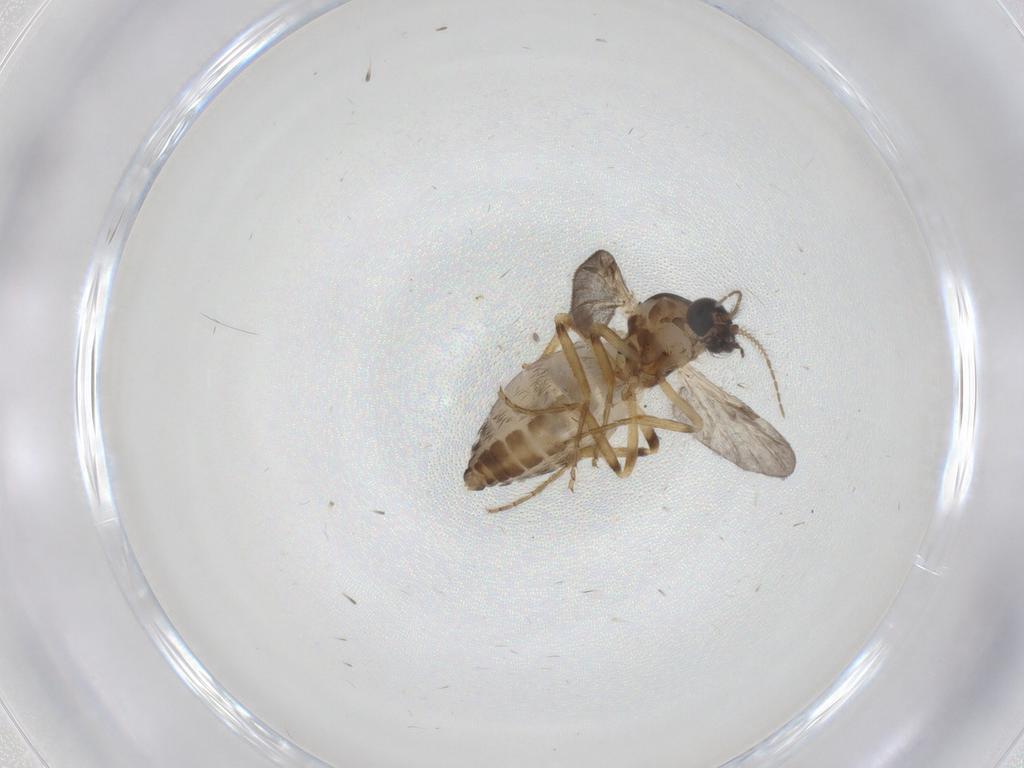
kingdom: Animalia
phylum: Arthropoda
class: Insecta
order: Diptera
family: Ceratopogonidae
